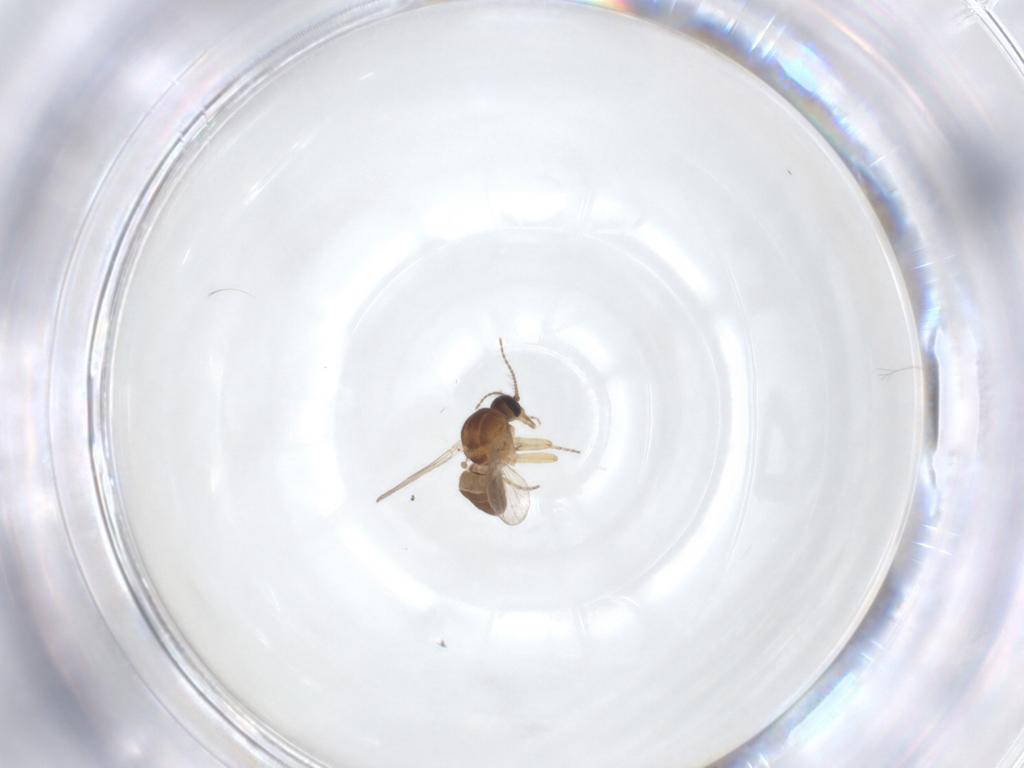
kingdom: Animalia
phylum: Arthropoda
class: Insecta
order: Diptera
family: Ceratopogonidae
